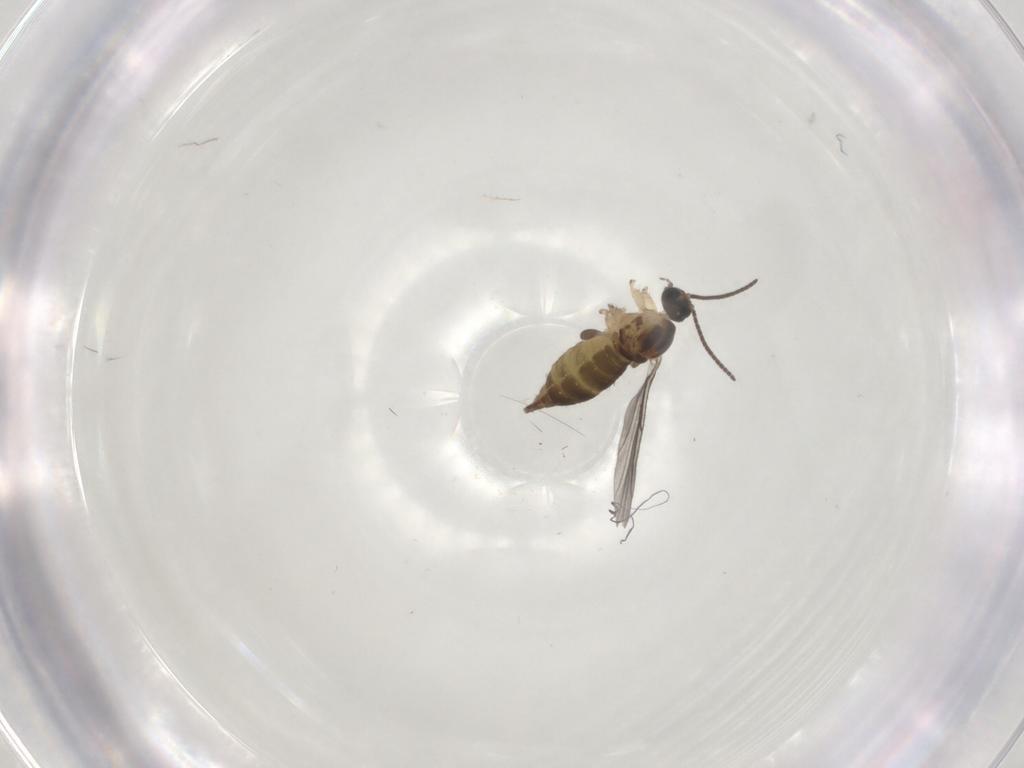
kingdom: Animalia
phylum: Arthropoda
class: Insecta
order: Diptera
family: Sciaridae
